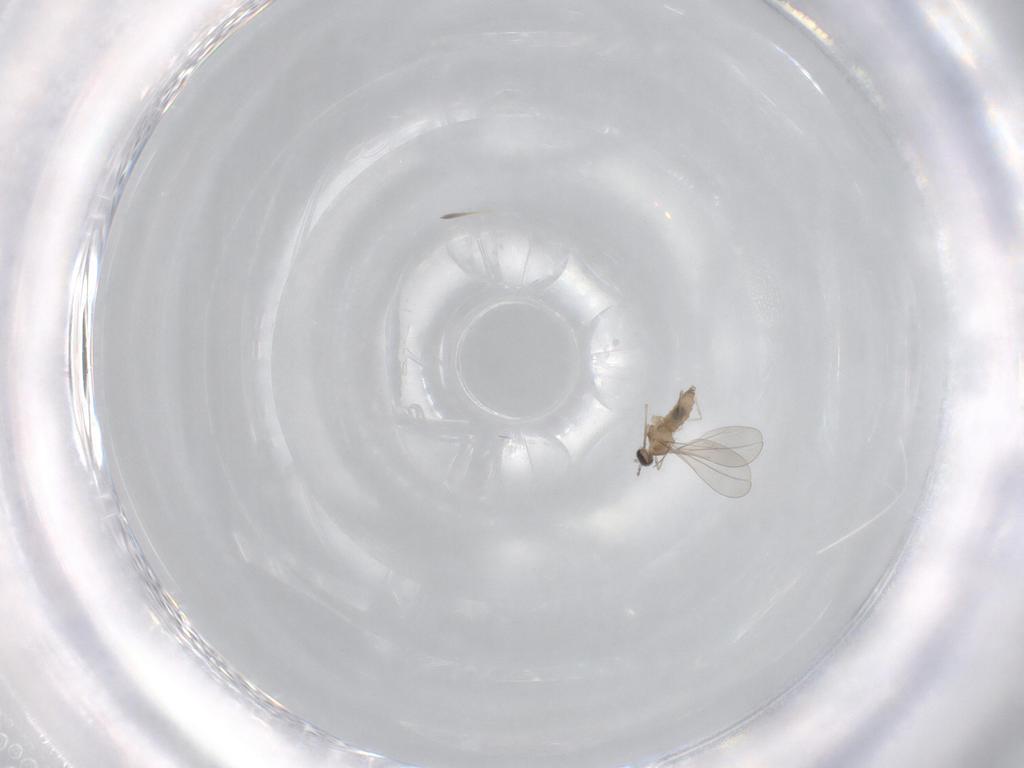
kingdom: Animalia
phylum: Arthropoda
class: Insecta
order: Diptera
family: Cecidomyiidae
